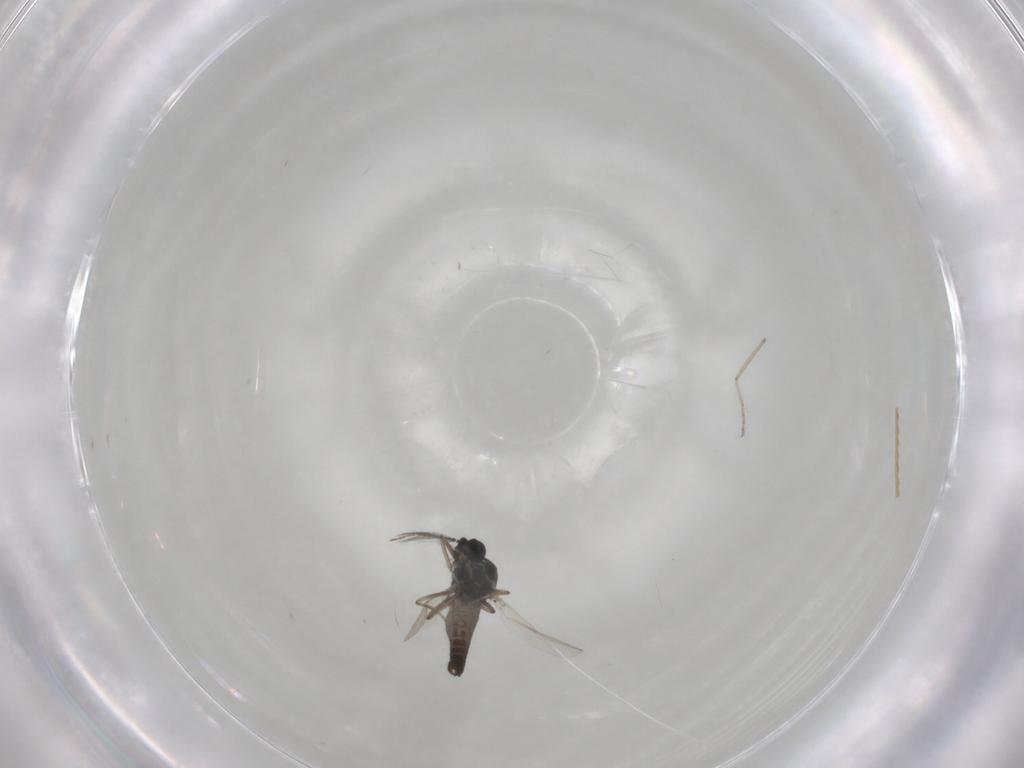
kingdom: Animalia
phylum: Arthropoda
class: Insecta
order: Diptera
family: Ceratopogonidae
